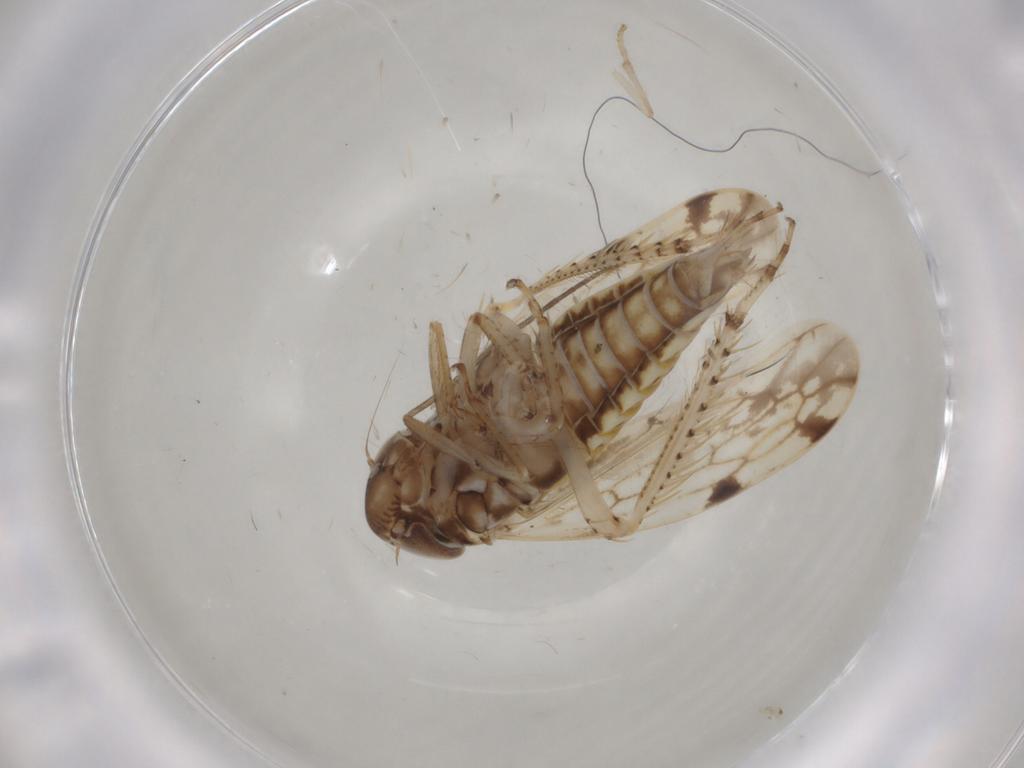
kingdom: Animalia
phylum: Arthropoda
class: Insecta
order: Hemiptera
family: Cicadellidae
